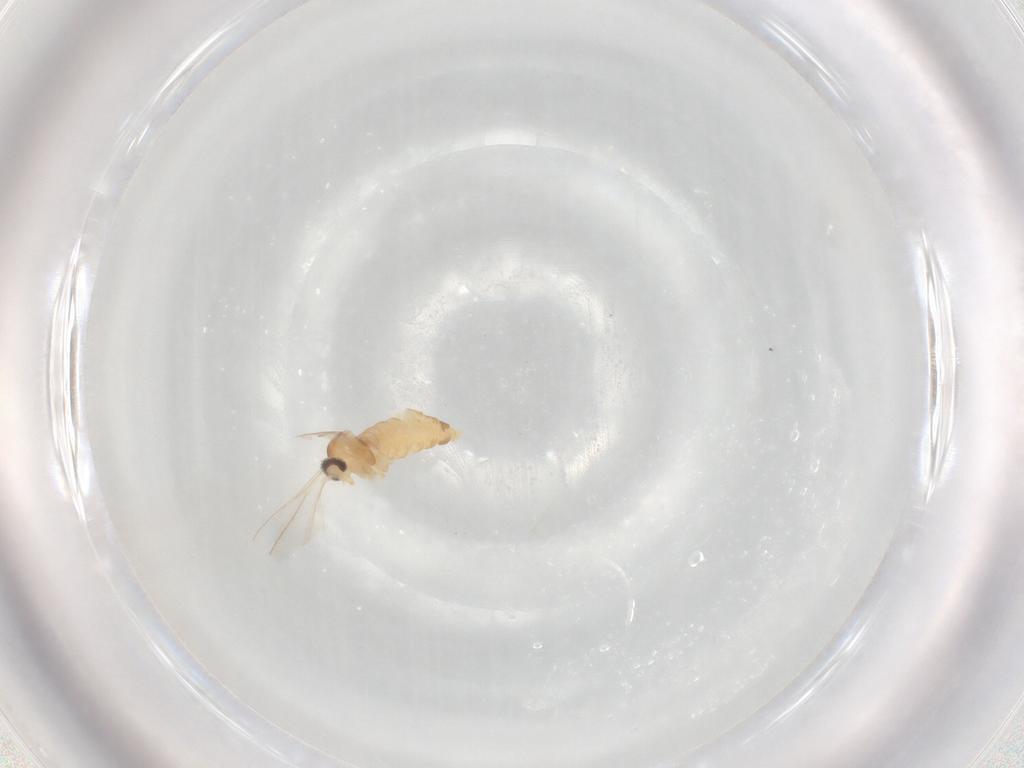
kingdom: Animalia
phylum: Arthropoda
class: Insecta
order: Diptera
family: Cecidomyiidae
